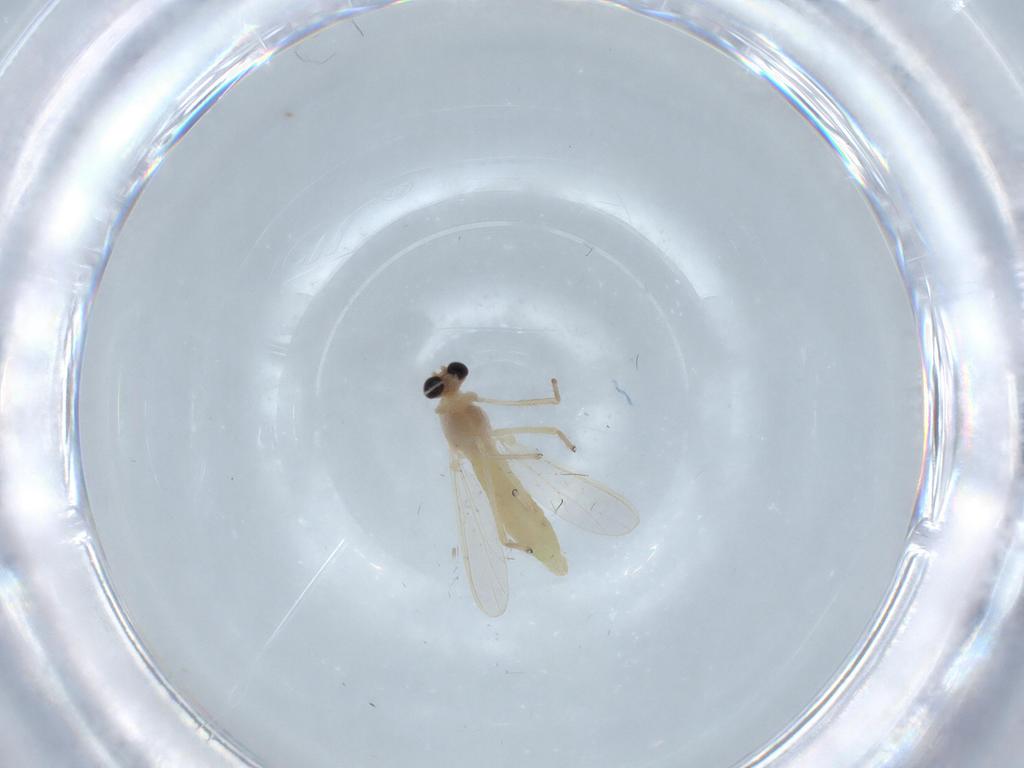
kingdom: Animalia
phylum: Arthropoda
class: Insecta
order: Diptera
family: Chironomidae
